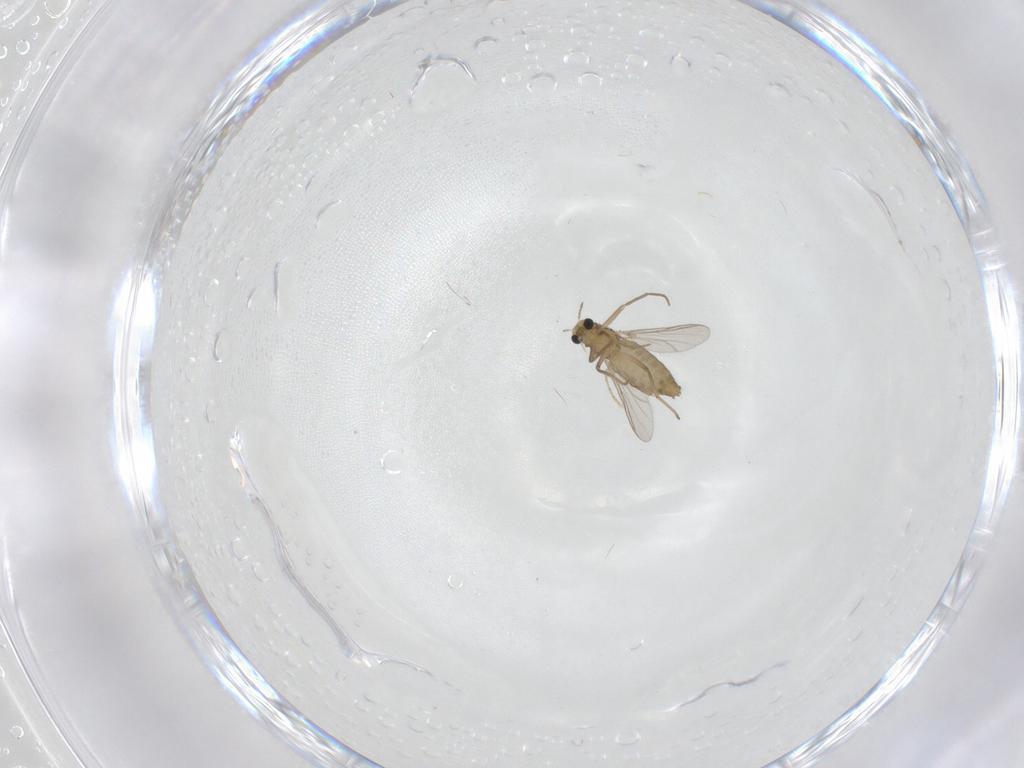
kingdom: Animalia
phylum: Arthropoda
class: Insecta
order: Diptera
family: Chironomidae
